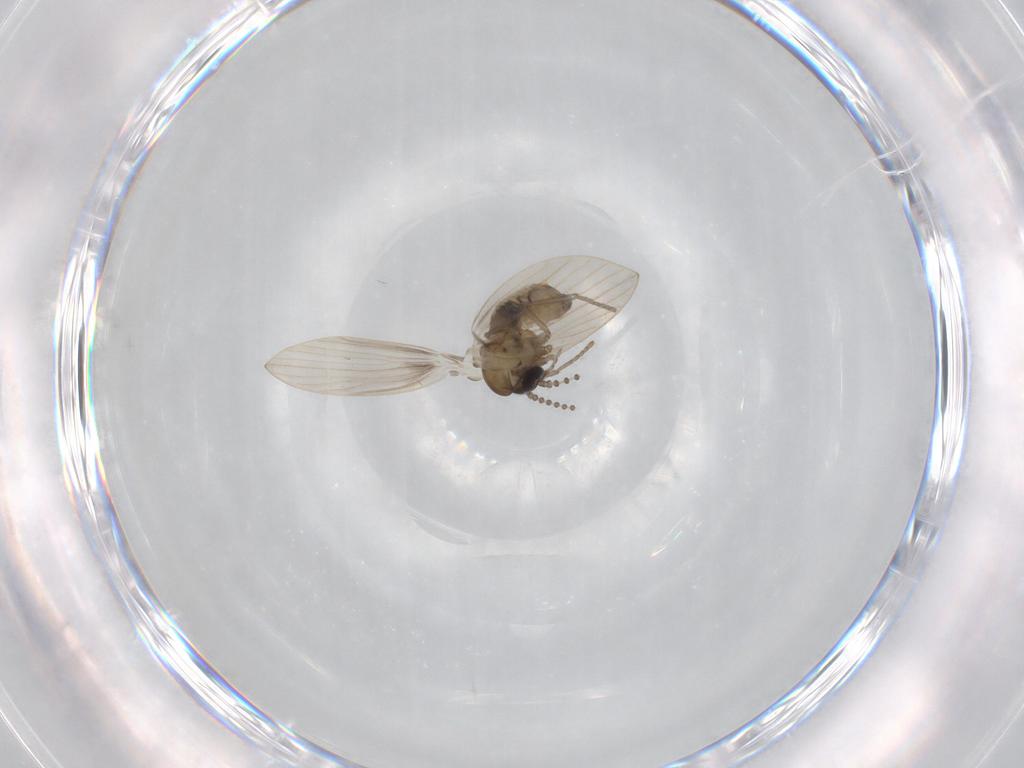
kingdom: Animalia
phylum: Arthropoda
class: Insecta
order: Diptera
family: Psychodidae
